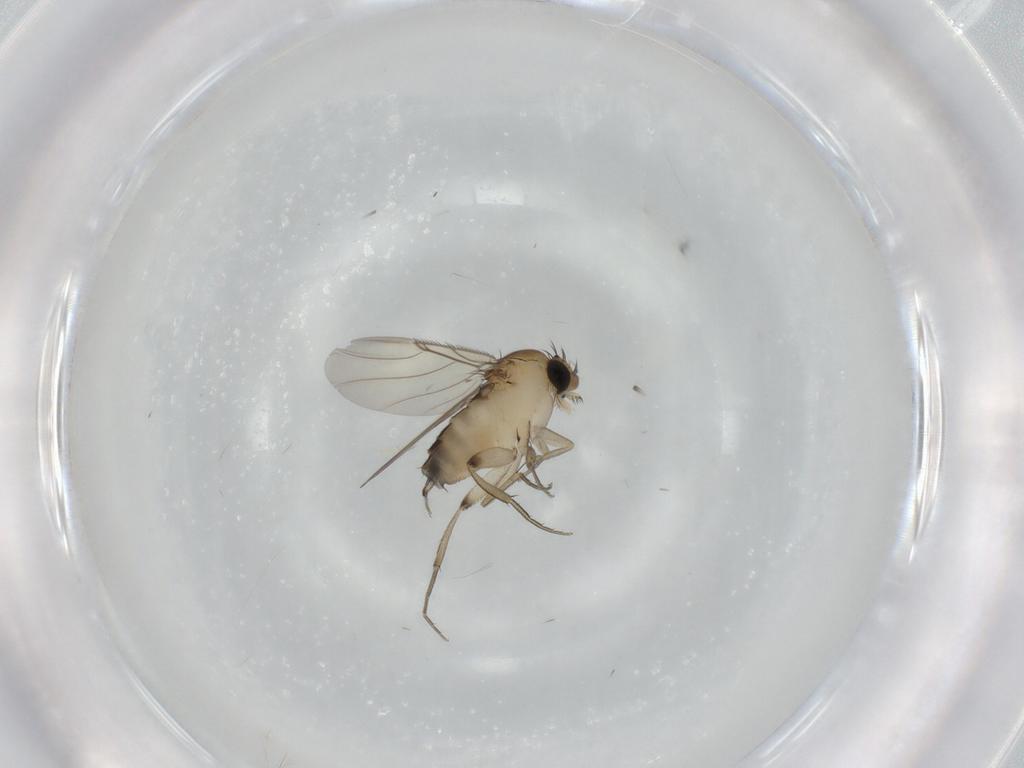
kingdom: Animalia
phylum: Arthropoda
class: Insecta
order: Diptera
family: Phoridae
